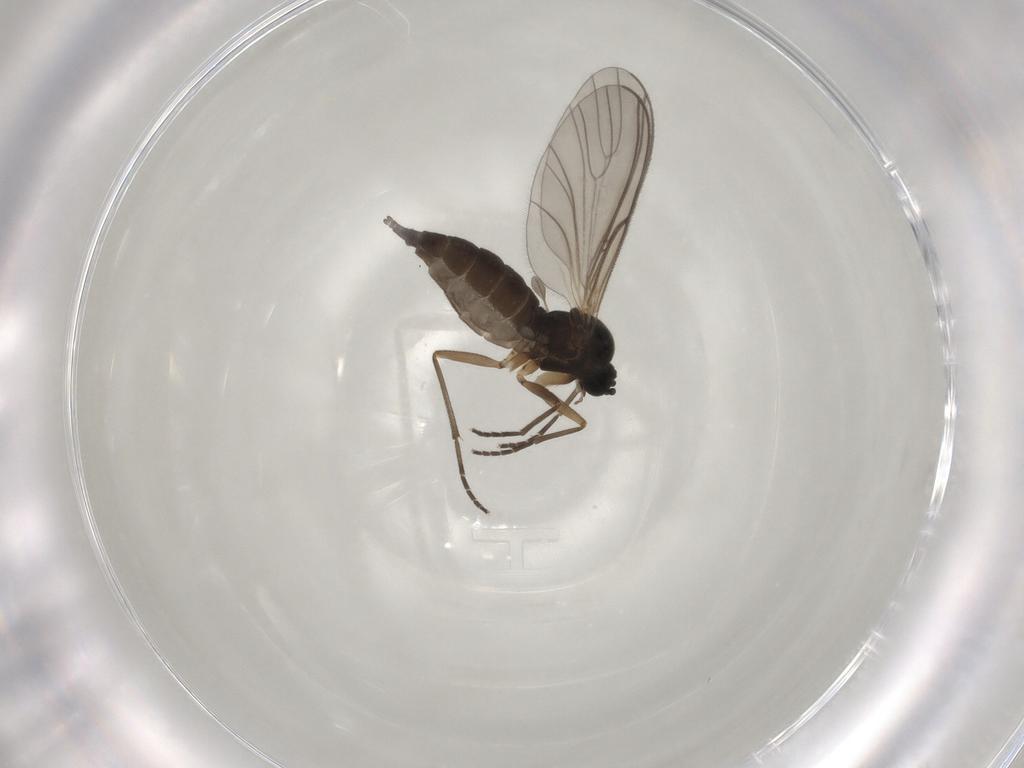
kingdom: Animalia
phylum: Arthropoda
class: Insecta
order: Diptera
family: Sciaridae
